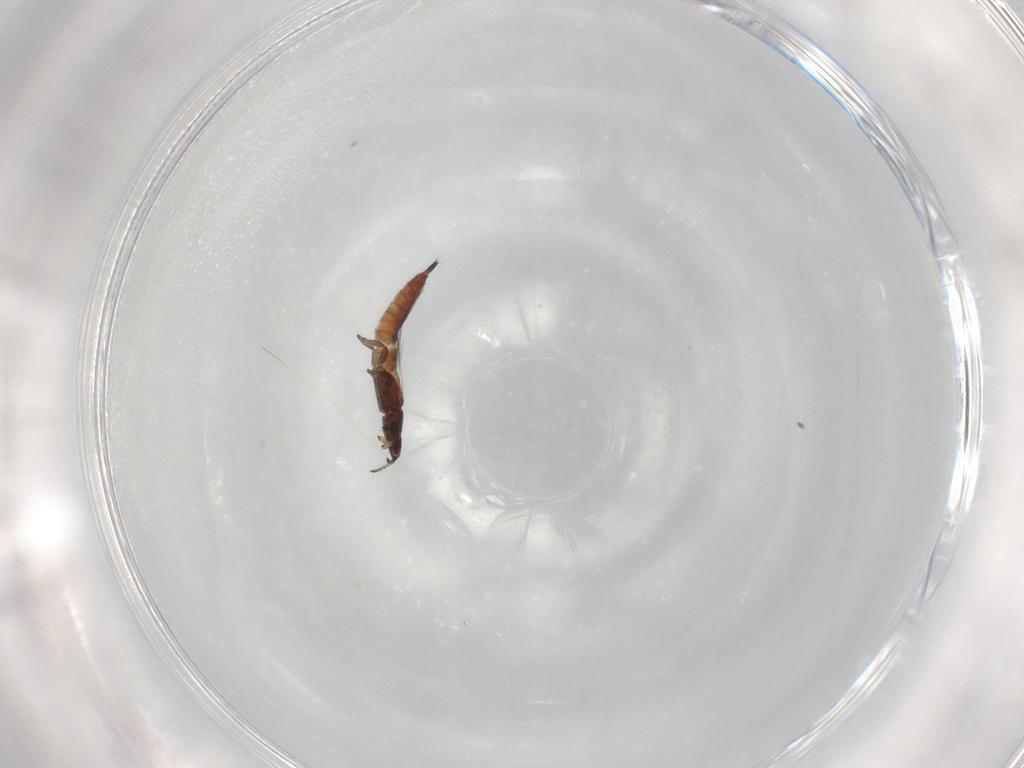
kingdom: Animalia
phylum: Arthropoda
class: Insecta
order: Thysanoptera
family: Phlaeothripidae
